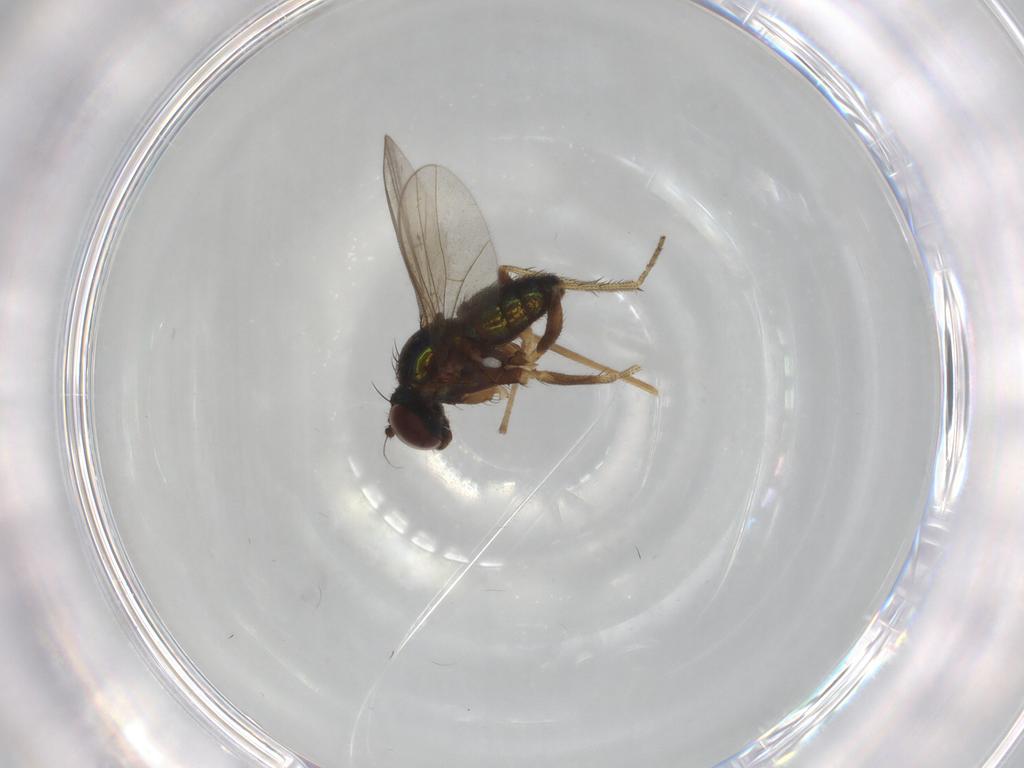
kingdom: Animalia
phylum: Arthropoda
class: Insecta
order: Diptera
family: Chironomidae
